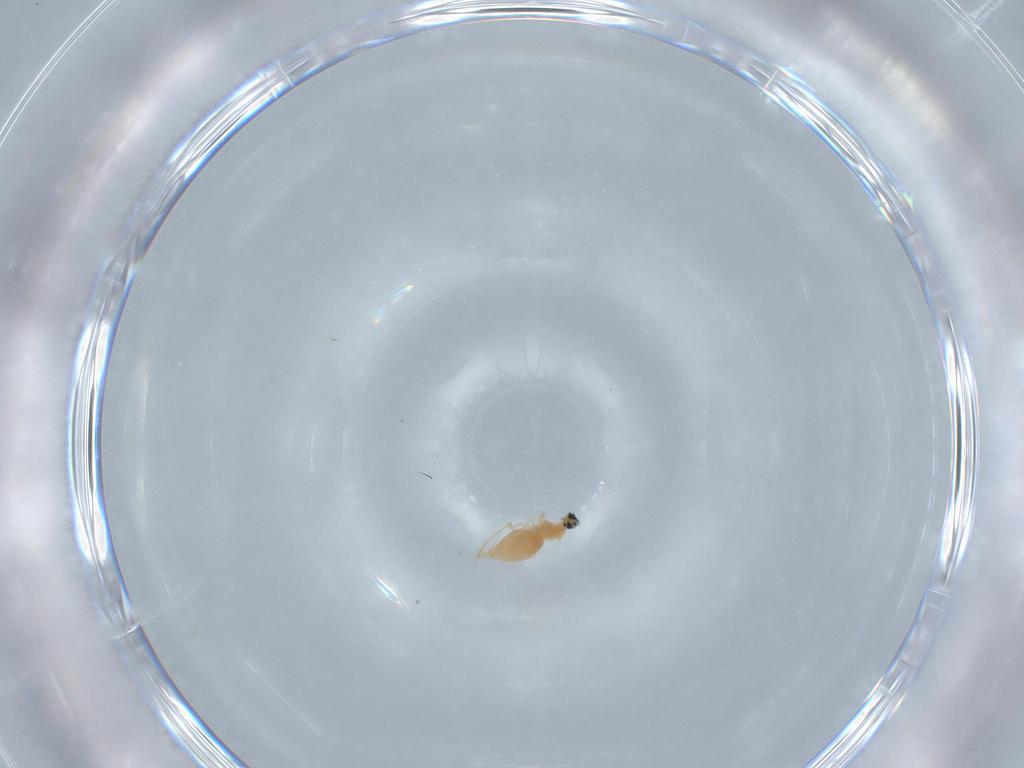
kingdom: Animalia
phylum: Arthropoda
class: Insecta
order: Diptera
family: Cecidomyiidae
